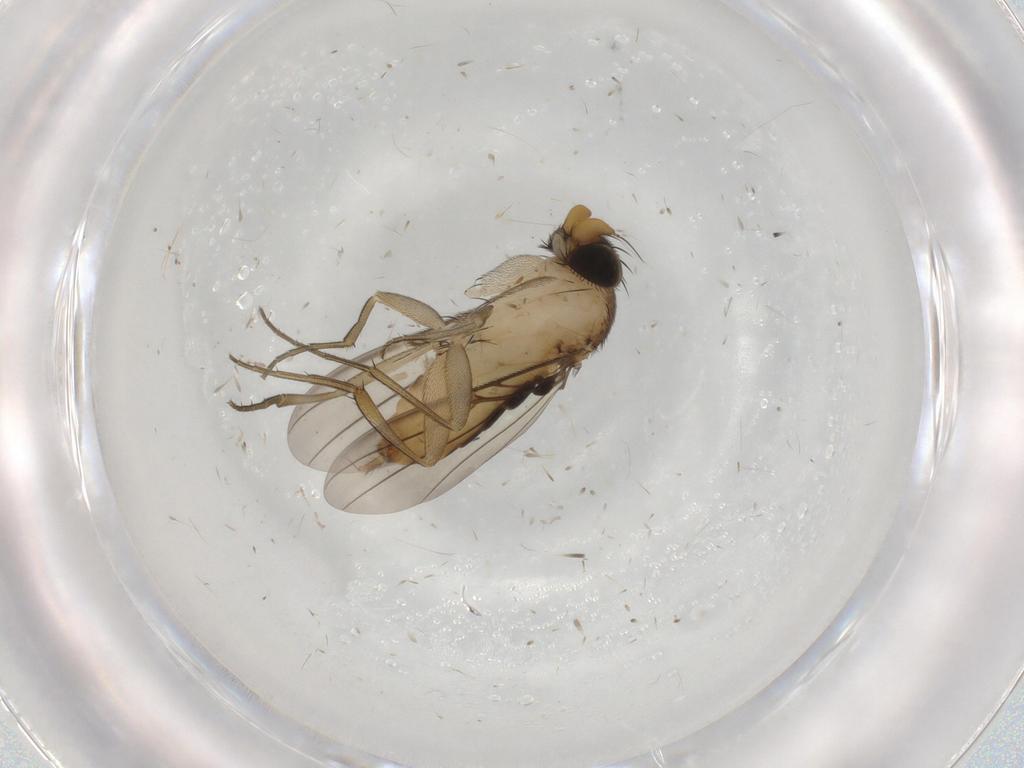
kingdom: Animalia
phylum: Arthropoda
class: Insecta
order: Diptera
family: Phoridae
